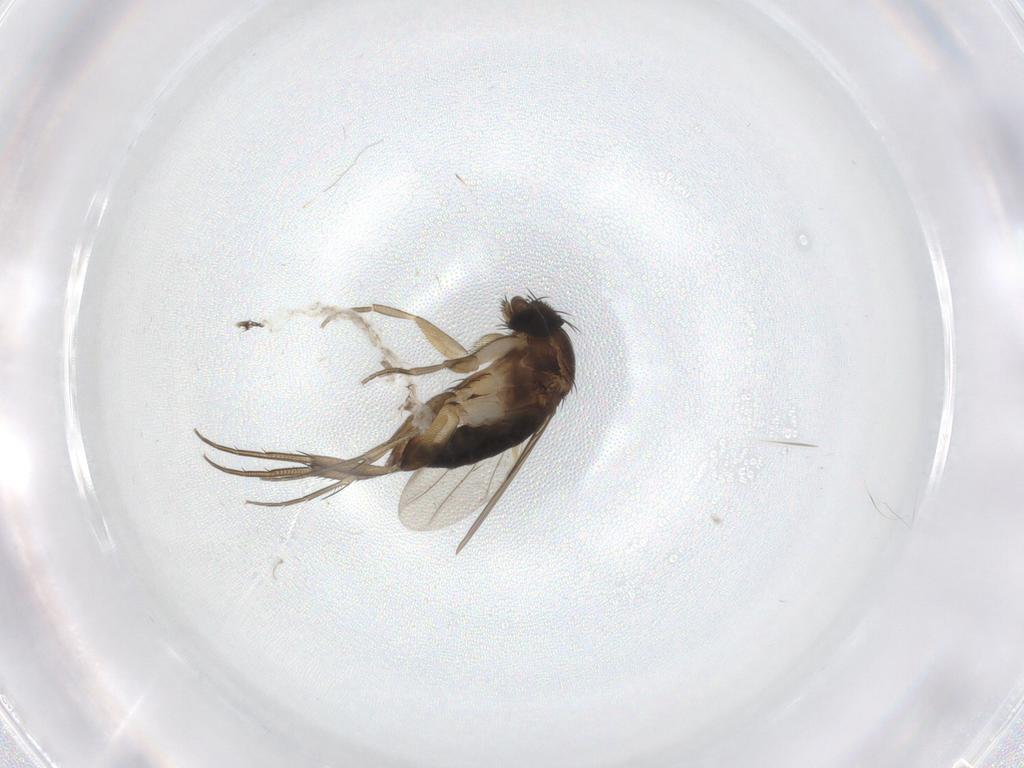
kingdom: Animalia
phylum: Arthropoda
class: Insecta
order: Diptera
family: Phoridae
